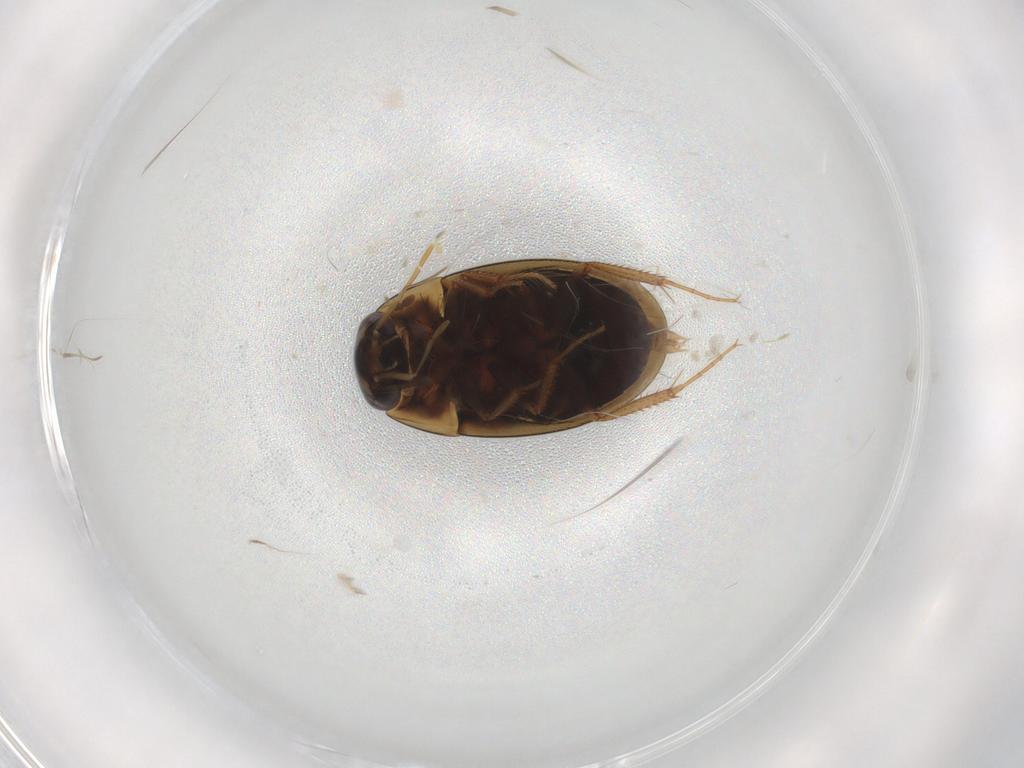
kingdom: Animalia
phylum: Arthropoda
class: Insecta
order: Coleoptera
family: Hydrophilidae
